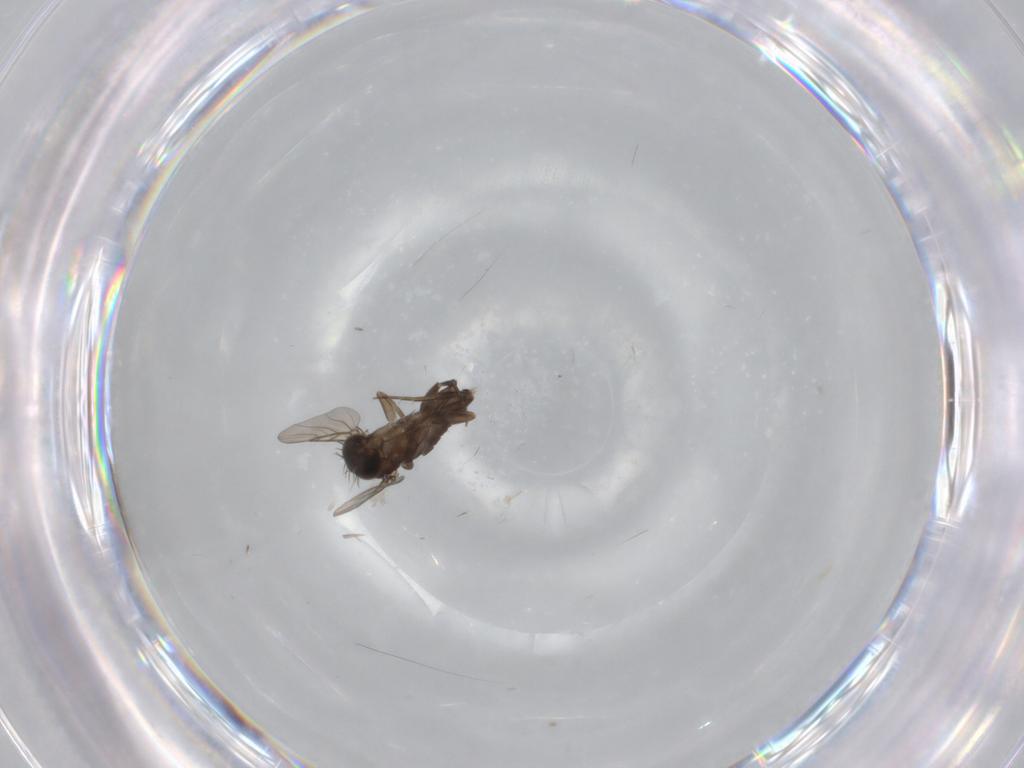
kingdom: Animalia
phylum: Arthropoda
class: Insecta
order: Diptera
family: Phoridae
